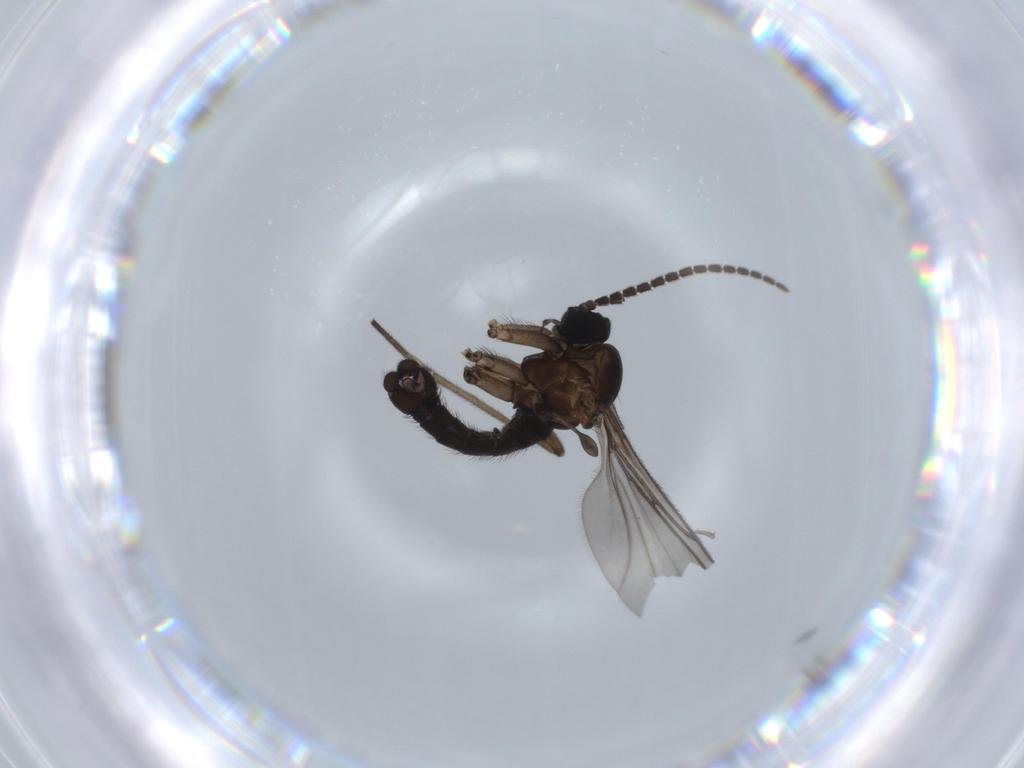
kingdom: Animalia
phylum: Arthropoda
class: Insecta
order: Diptera
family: Sciaridae
